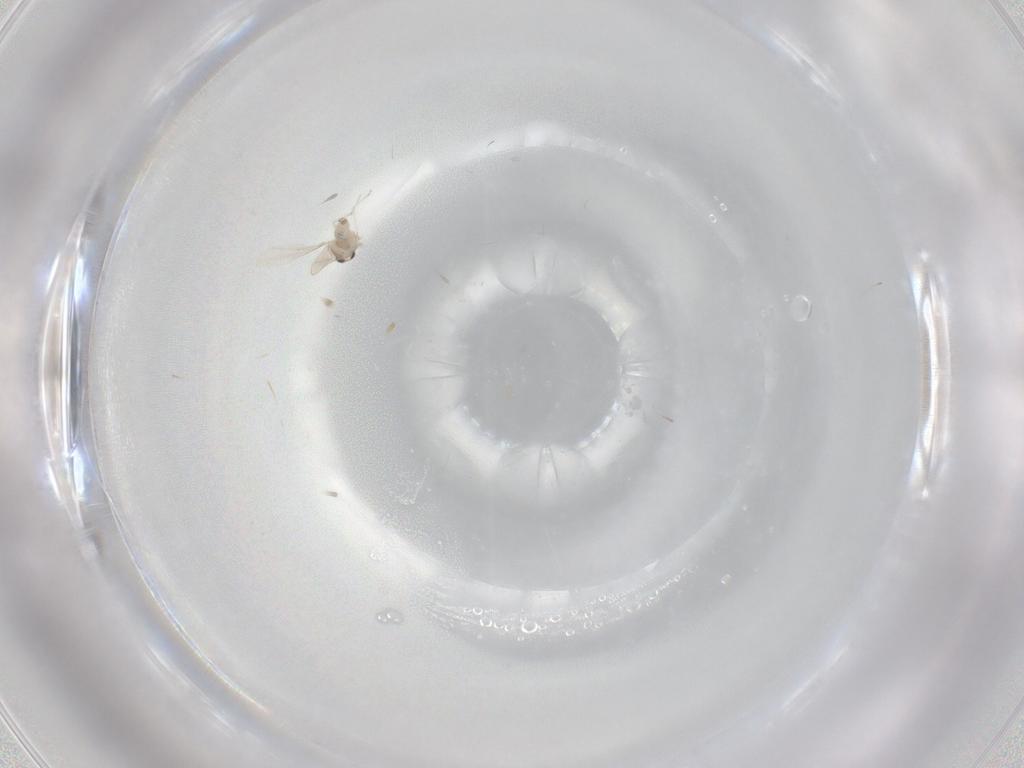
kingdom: Animalia
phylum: Arthropoda
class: Insecta
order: Diptera
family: Cecidomyiidae
